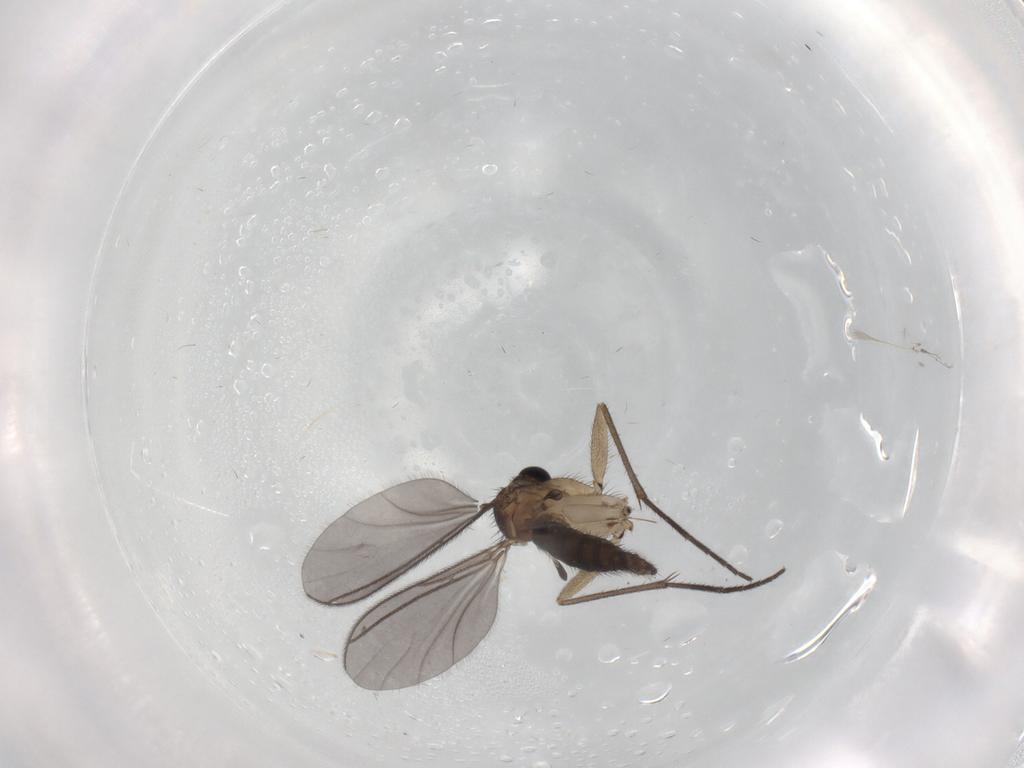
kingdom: Animalia
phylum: Arthropoda
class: Insecta
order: Diptera
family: Sciaridae
